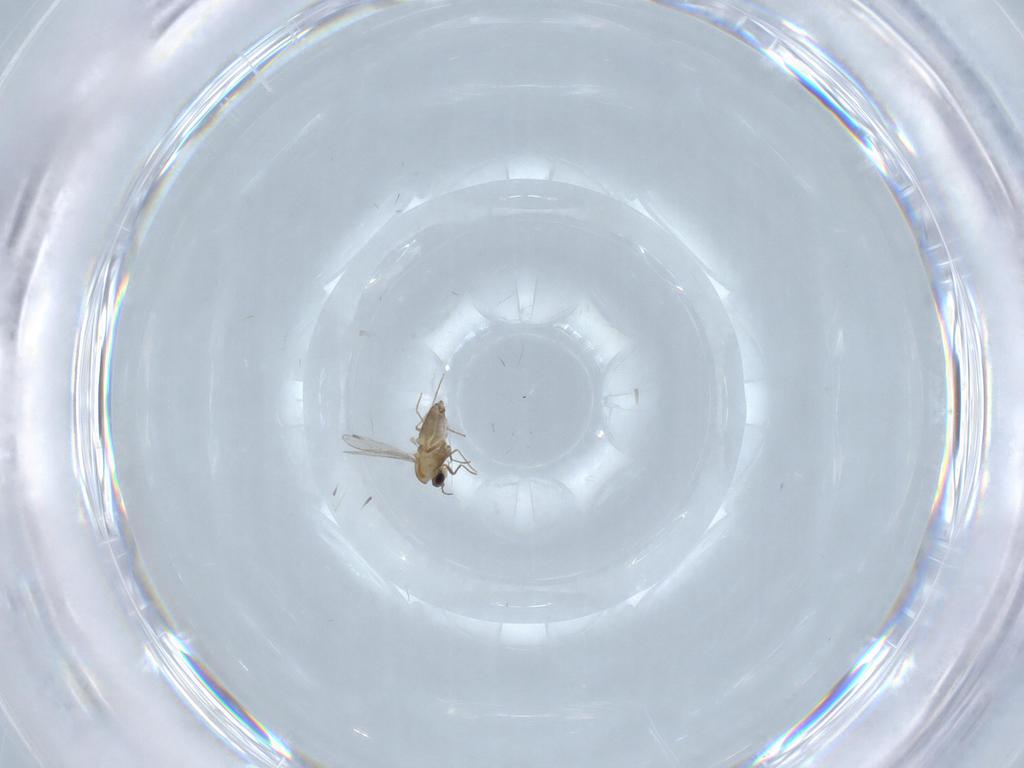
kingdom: Animalia
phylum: Arthropoda
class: Insecta
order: Diptera
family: Chironomidae
